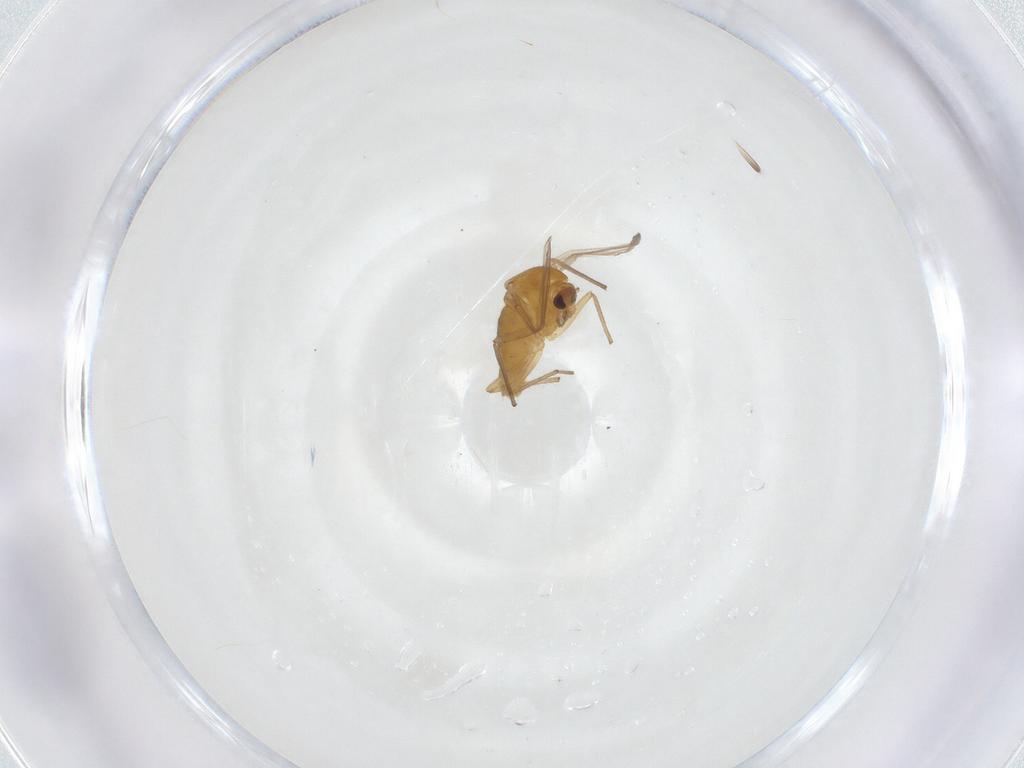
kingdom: Animalia
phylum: Arthropoda
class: Insecta
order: Diptera
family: Chironomidae
